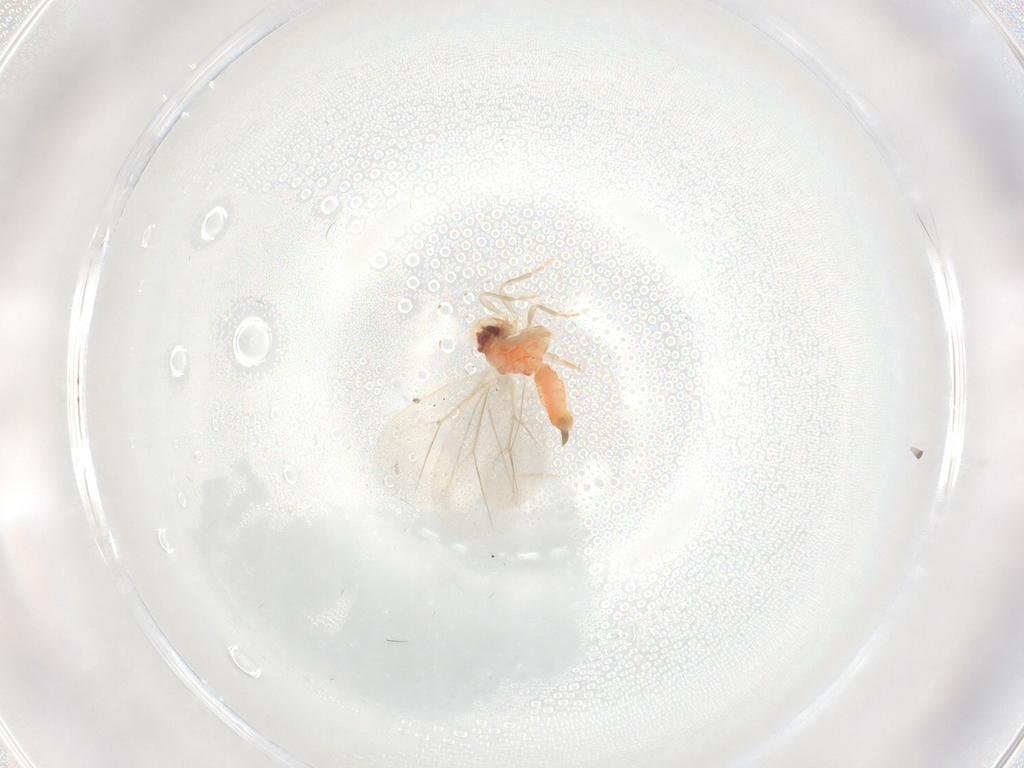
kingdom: Animalia
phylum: Arthropoda
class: Insecta
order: Hemiptera
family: Aleyrodidae
